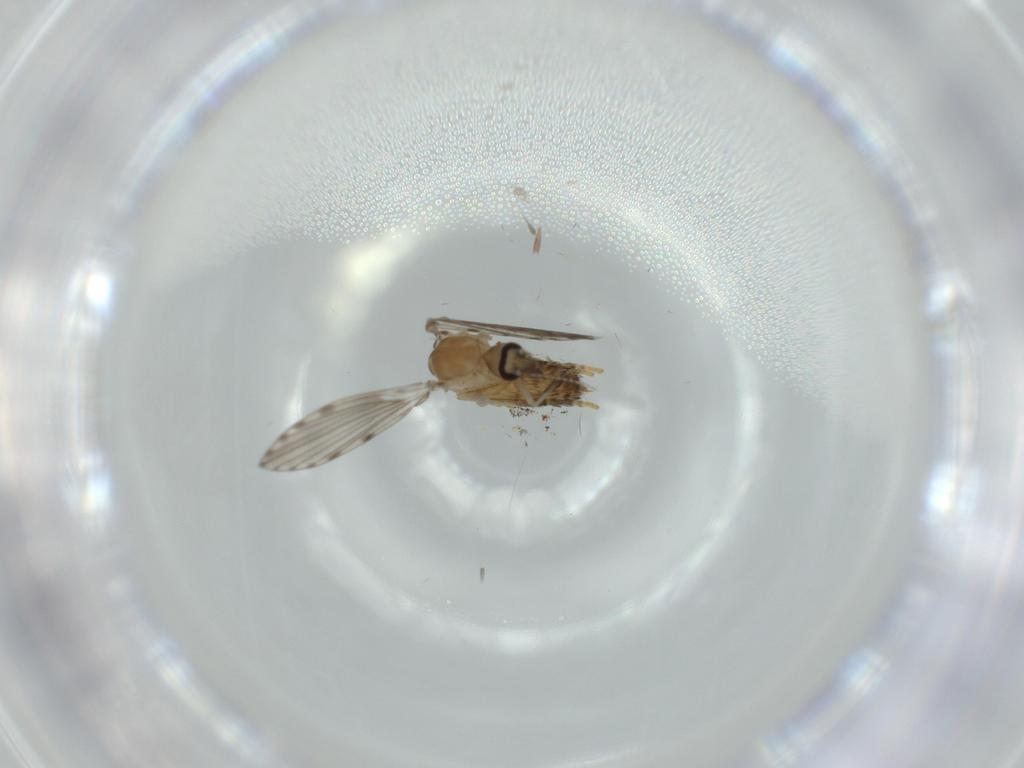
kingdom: Animalia
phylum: Arthropoda
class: Insecta
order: Diptera
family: Psychodidae
